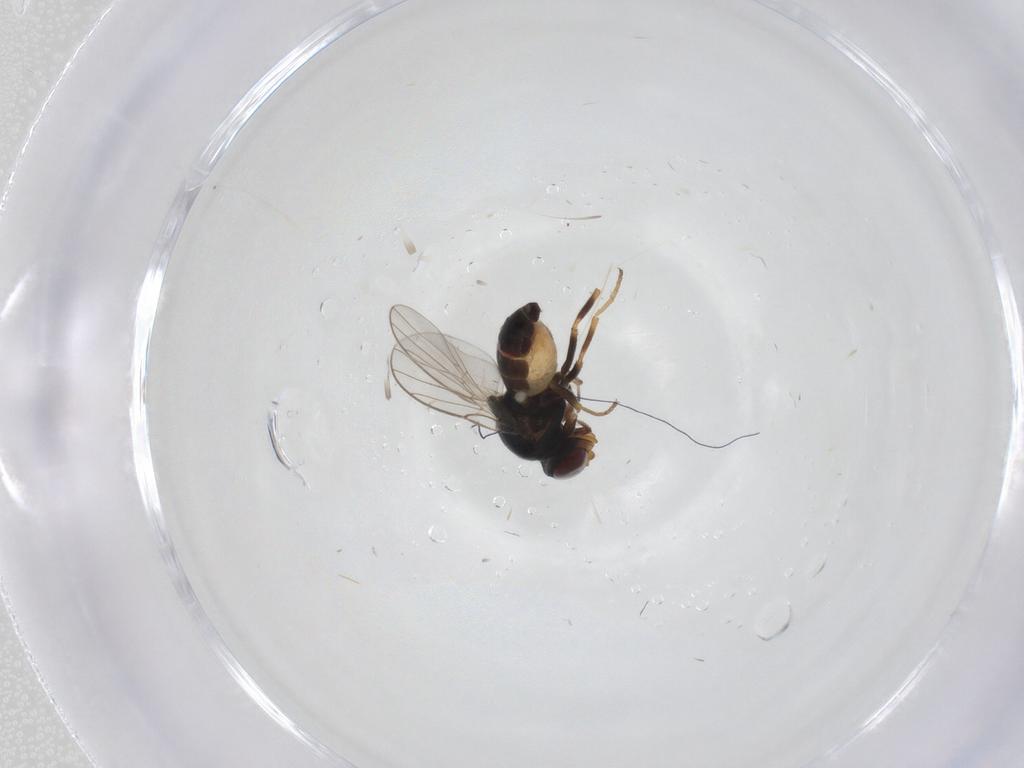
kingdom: Animalia
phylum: Arthropoda
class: Insecta
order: Diptera
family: Chloropidae
